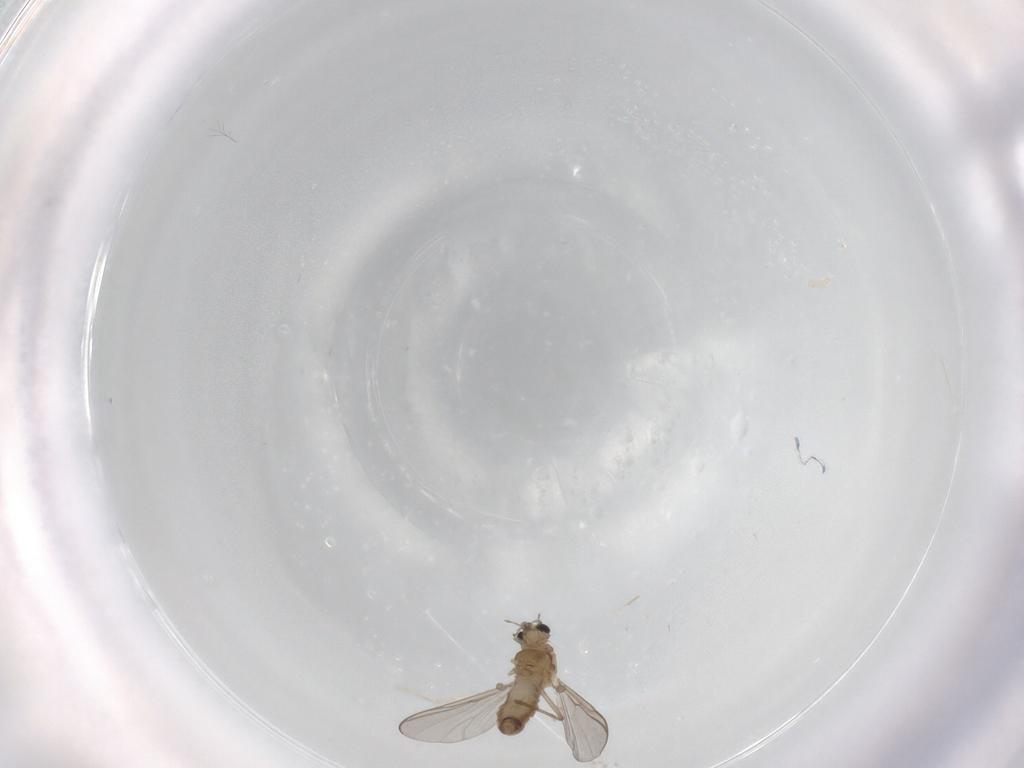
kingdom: Animalia
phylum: Arthropoda
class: Insecta
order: Diptera
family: Chironomidae
